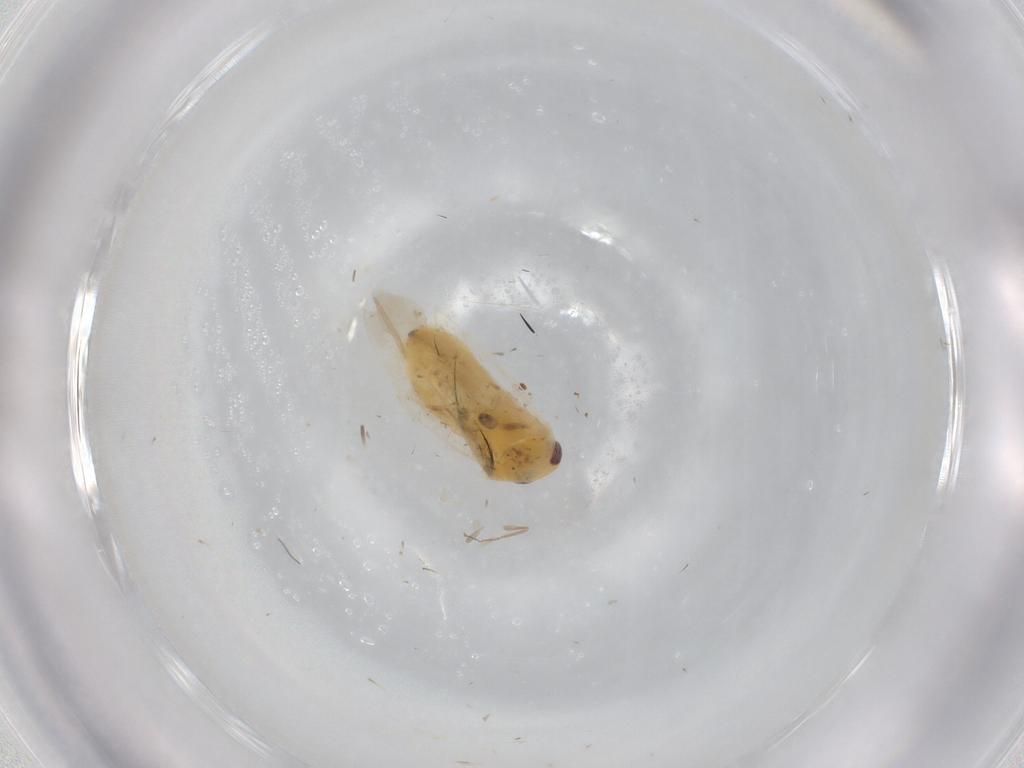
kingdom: Animalia
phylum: Arthropoda
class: Insecta
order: Hemiptera
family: Miridae
